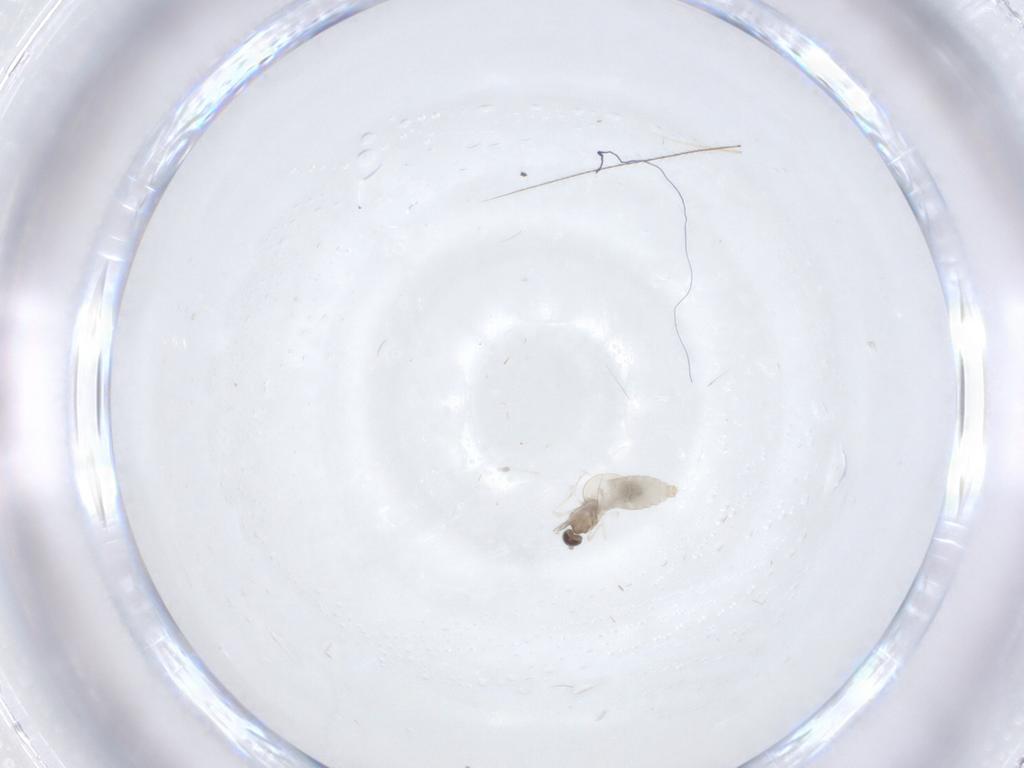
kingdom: Animalia
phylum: Arthropoda
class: Insecta
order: Diptera
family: Cecidomyiidae
